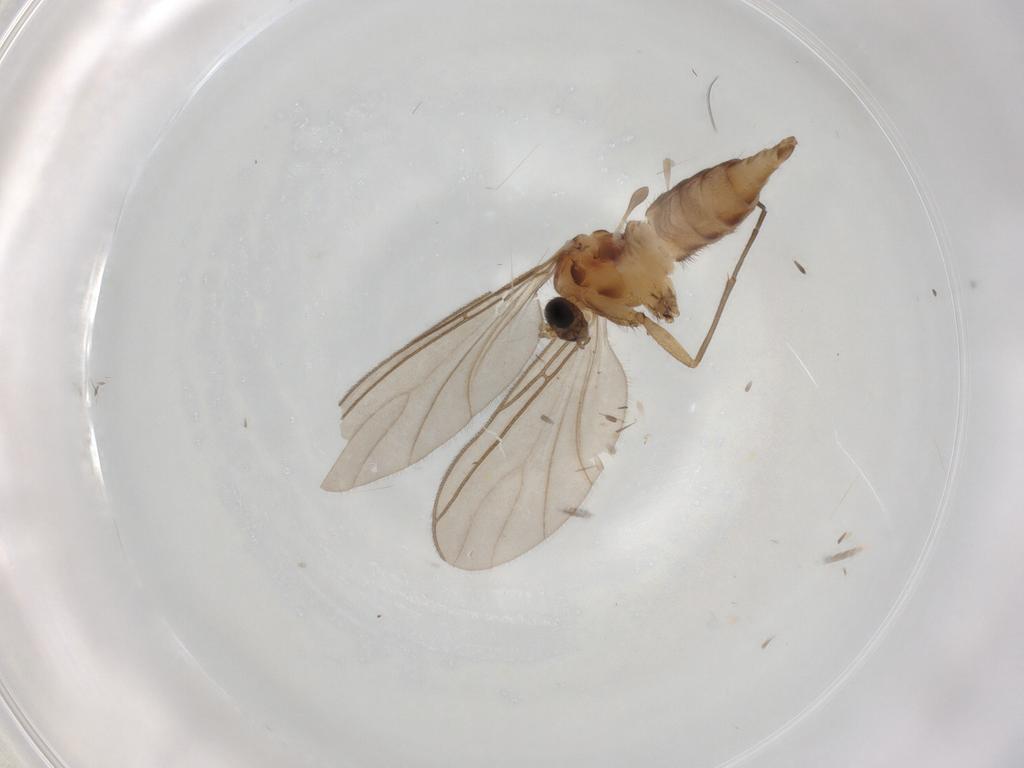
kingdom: Animalia
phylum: Arthropoda
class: Insecta
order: Diptera
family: Sciaridae
